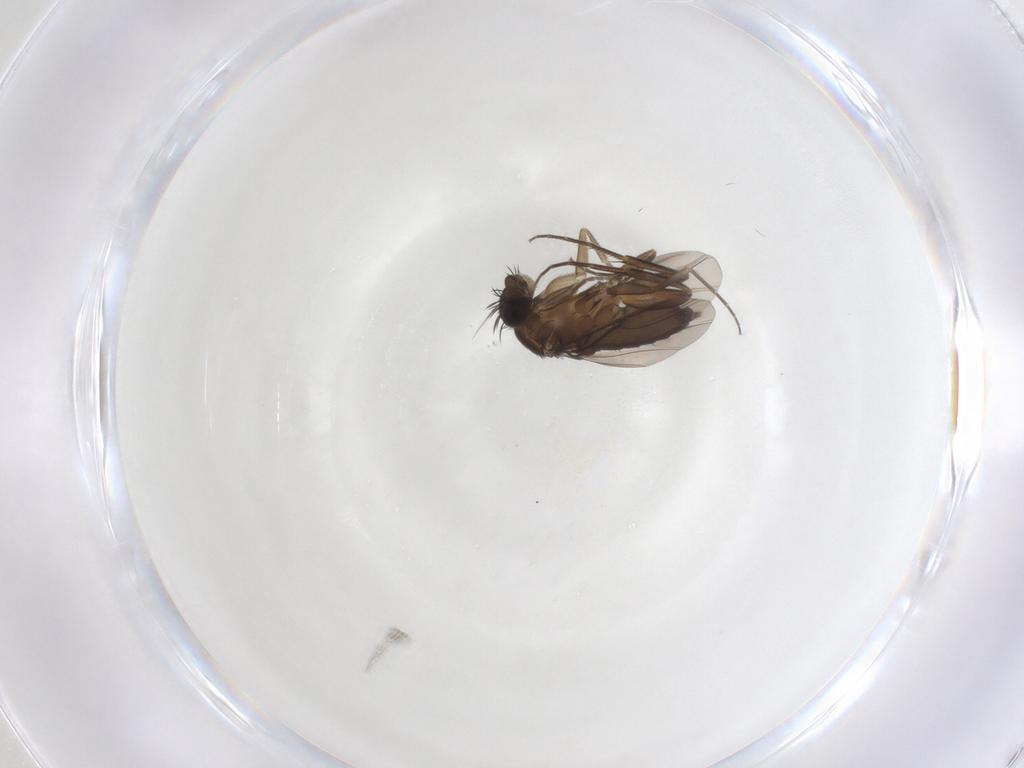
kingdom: Animalia
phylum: Arthropoda
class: Insecta
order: Diptera
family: Phoridae
